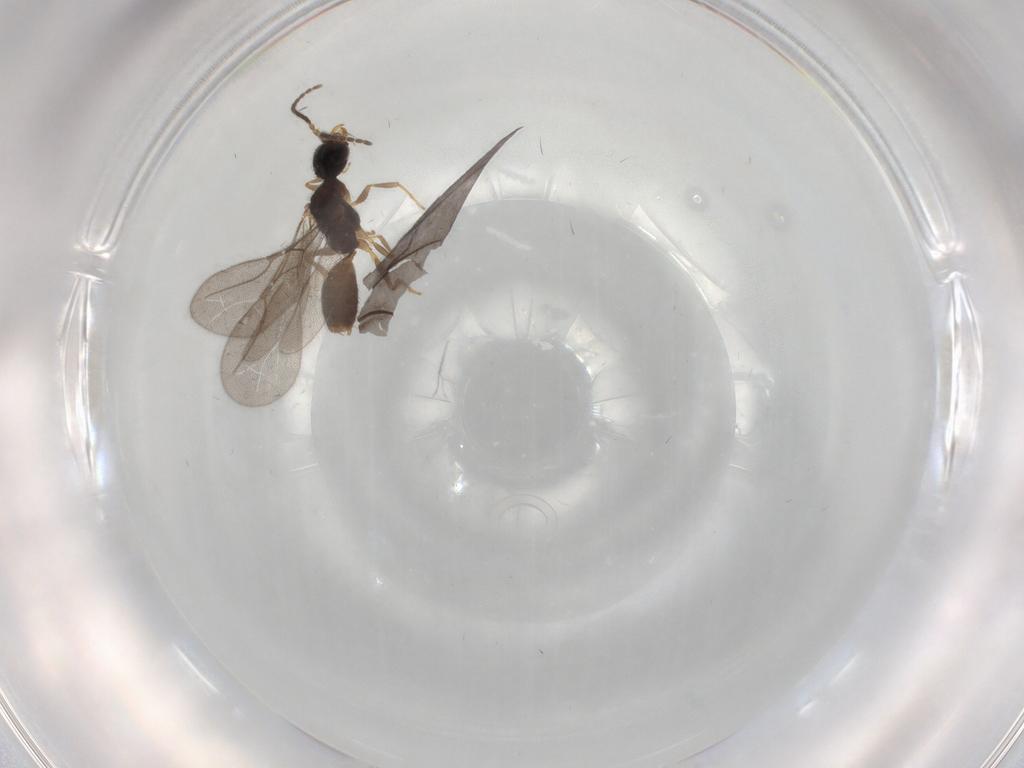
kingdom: Animalia
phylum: Arthropoda
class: Insecta
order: Hymenoptera
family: Bethylidae
